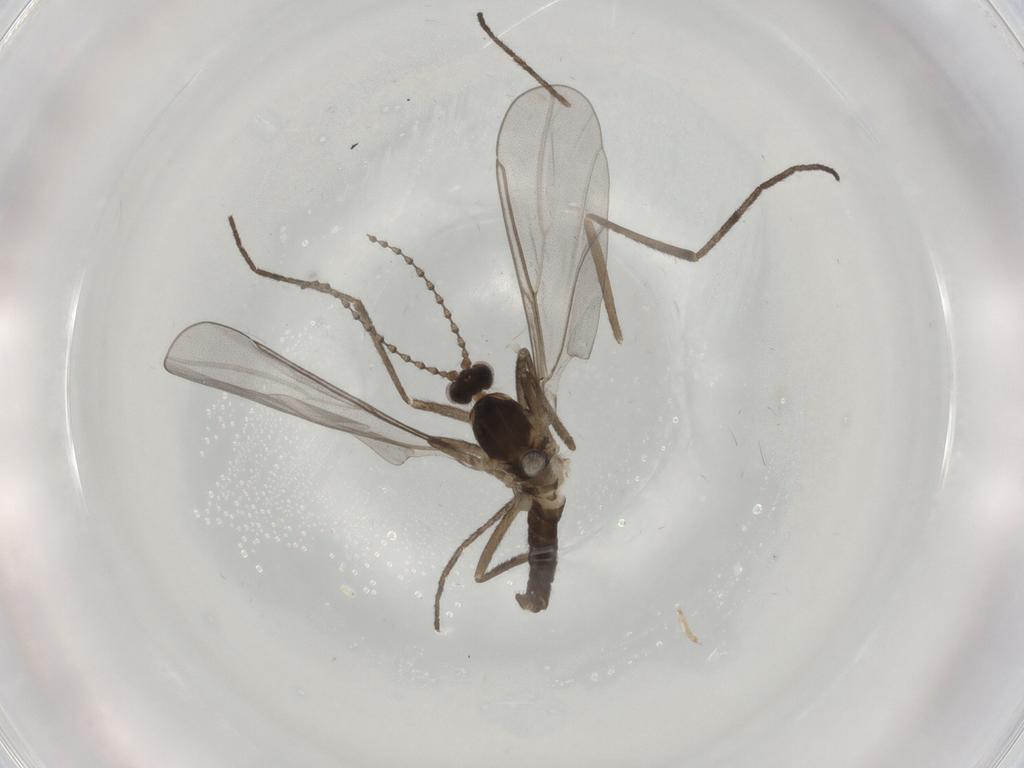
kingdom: Animalia
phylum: Arthropoda
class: Insecta
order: Diptera
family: Cecidomyiidae
